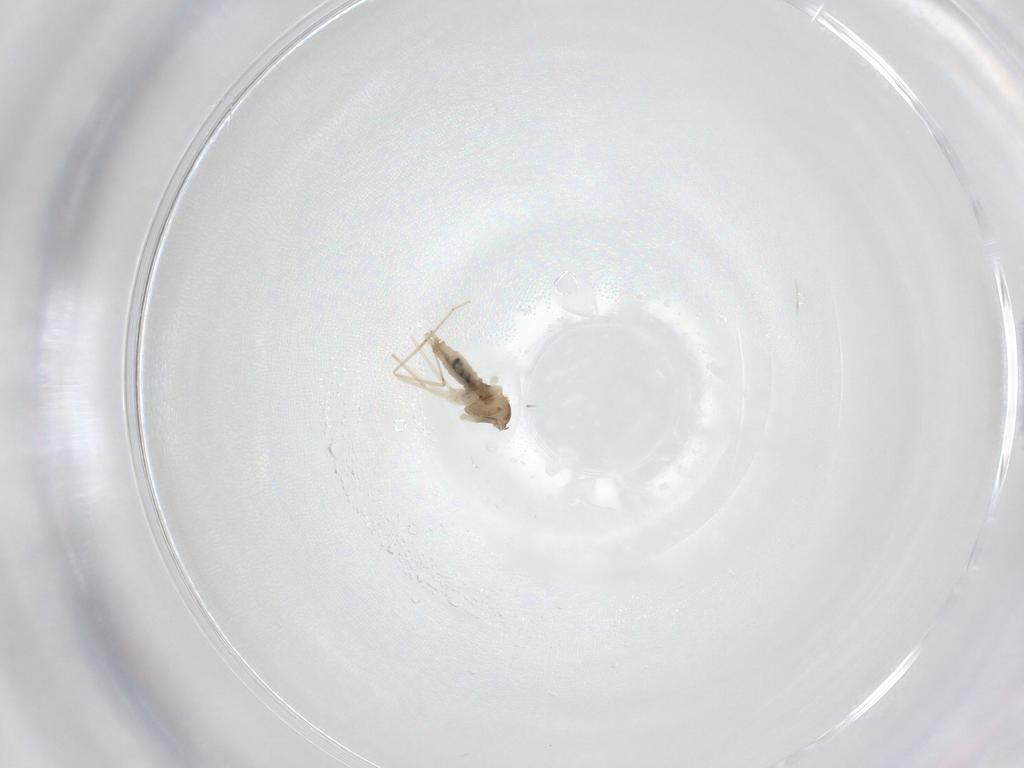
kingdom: Animalia
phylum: Arthropoda
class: Insecta
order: Diptera
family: Cecidomyiidae
